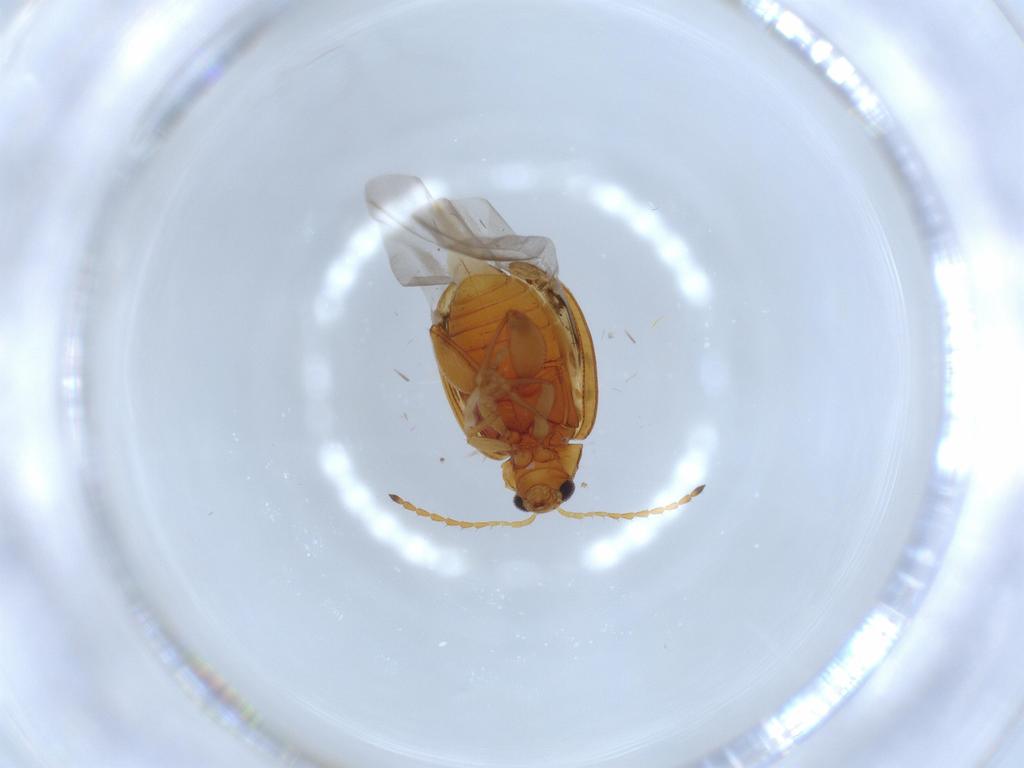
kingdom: Animalia
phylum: Arthropoda
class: Insecta
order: Coleoptera
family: Chrysomelidae
